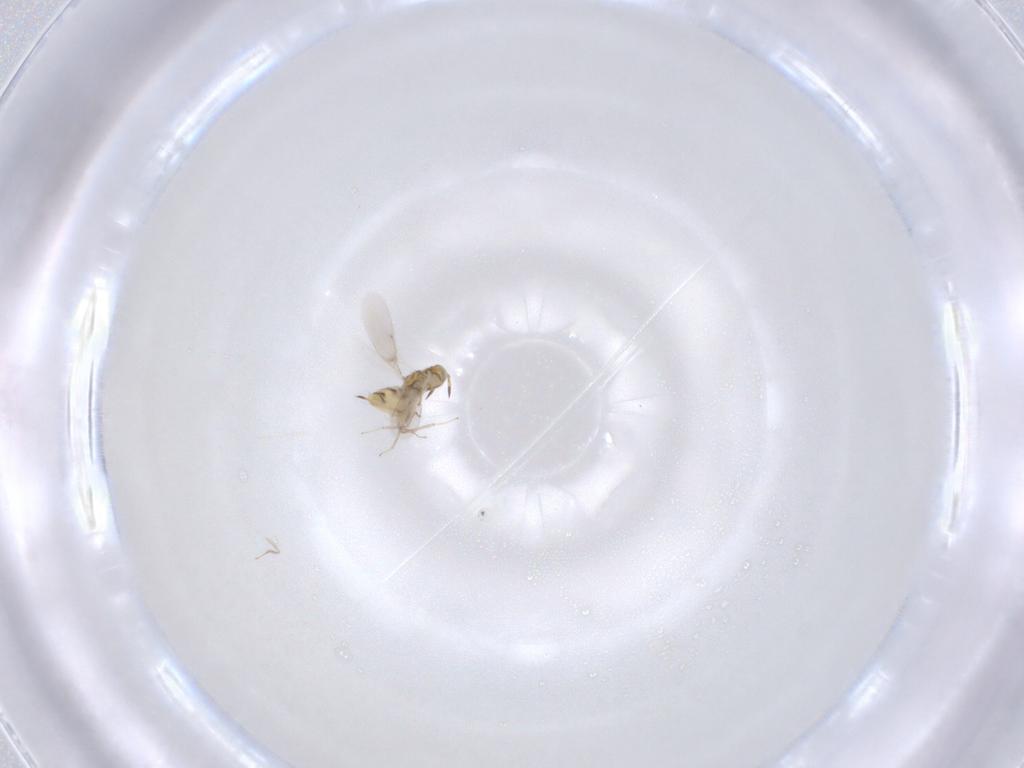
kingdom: Animalia
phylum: Arthropoda
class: Insecta
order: Hymenoptera
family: Aphelinidae
